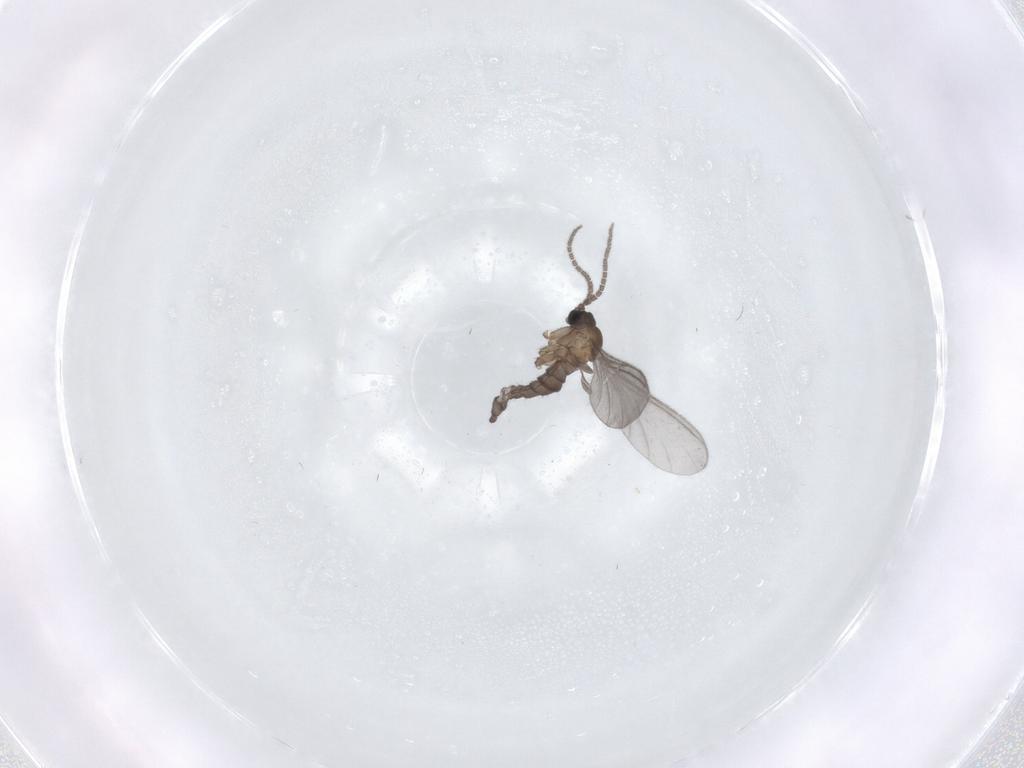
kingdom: Animalia
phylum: Arthropoda
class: Insecta
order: Diptera
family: Sciaridae
